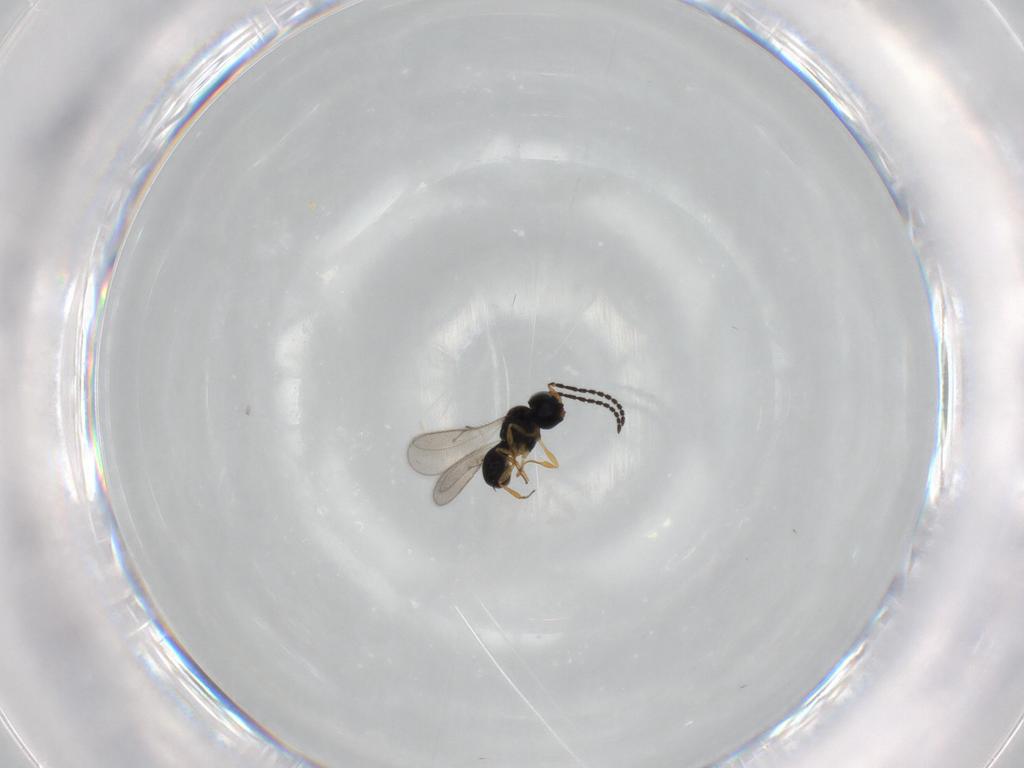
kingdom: Animalia
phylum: Arthropoda
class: Insecta
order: Hymenoptera
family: Scelionidae
